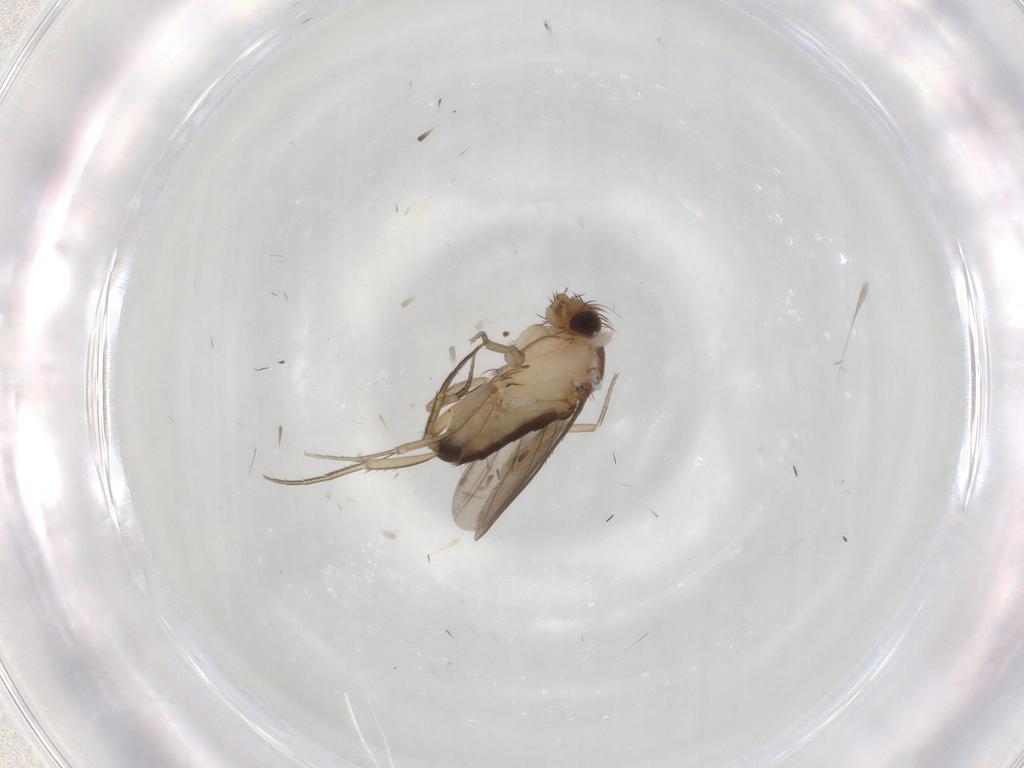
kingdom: Animalia
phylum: Arthropoda
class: Insecta
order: Diptera
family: Phoridae
